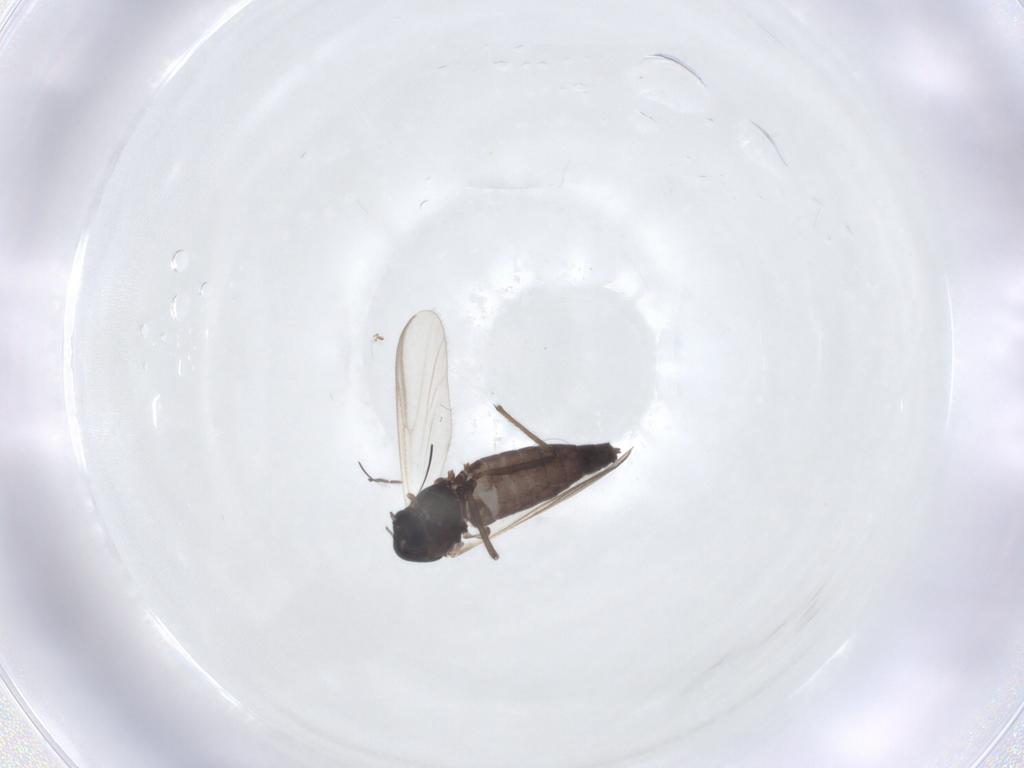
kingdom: Animalia
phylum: Arthropoda
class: Insecta
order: Diptera
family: Chironomidae
